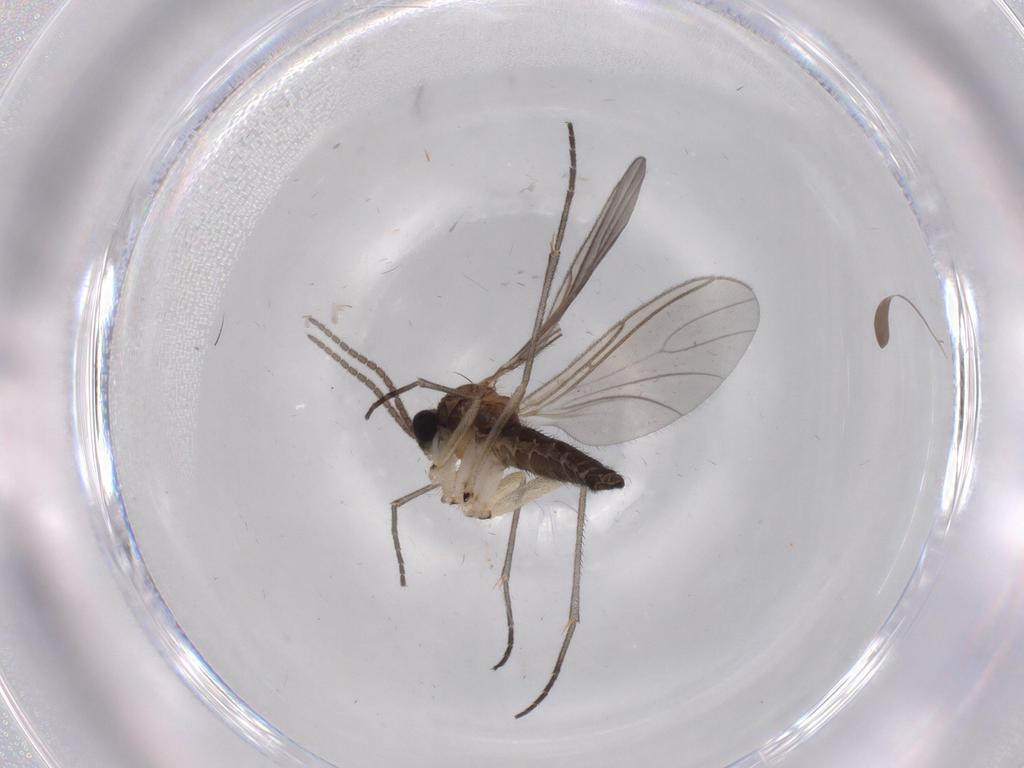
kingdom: Animalia
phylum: Arthropoda
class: Insecta
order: Diptera
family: Sciaridae
